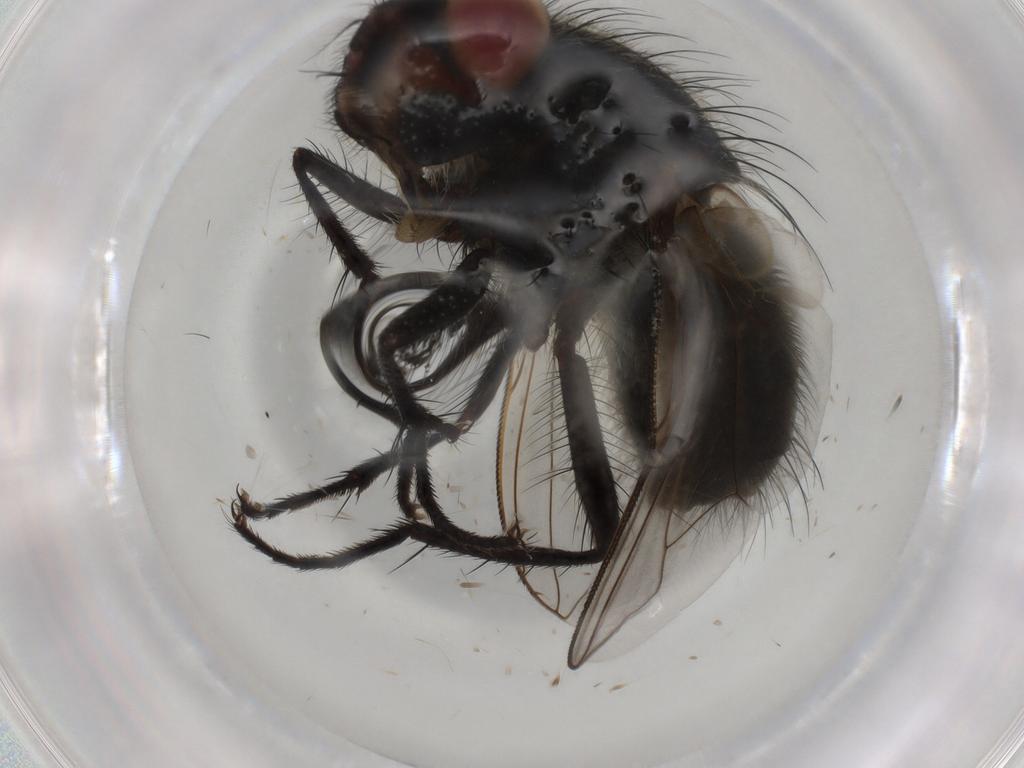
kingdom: Animalia
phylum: Arthropoda
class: Insecta
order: Diptera
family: Polleniidae
